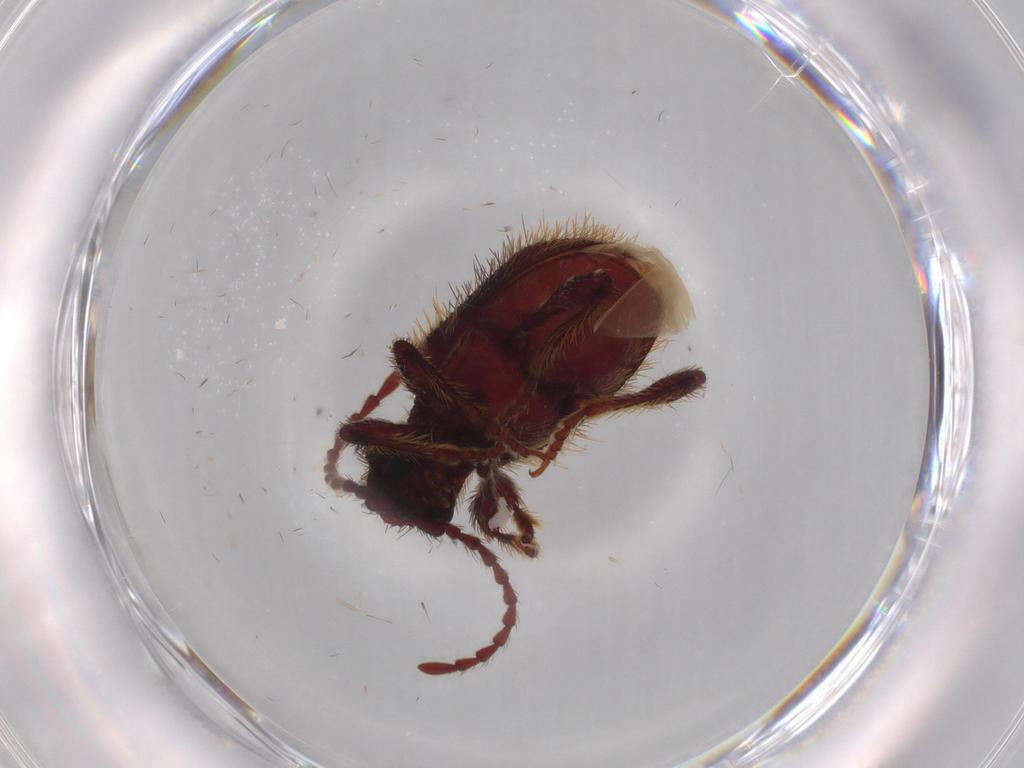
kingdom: Animalia
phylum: Arthropoda
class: Insecta
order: Coleoptera
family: Ptinidae
